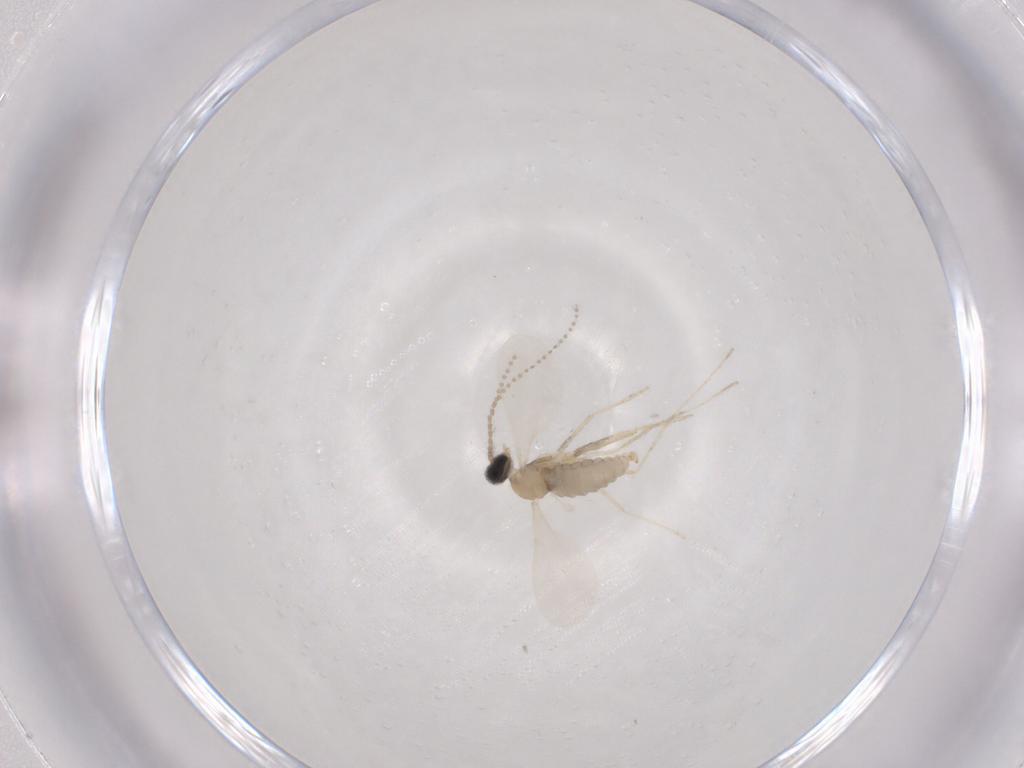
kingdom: Animalia
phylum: Arthropoda
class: Insecta
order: Diptera
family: Cecidomyiidae
